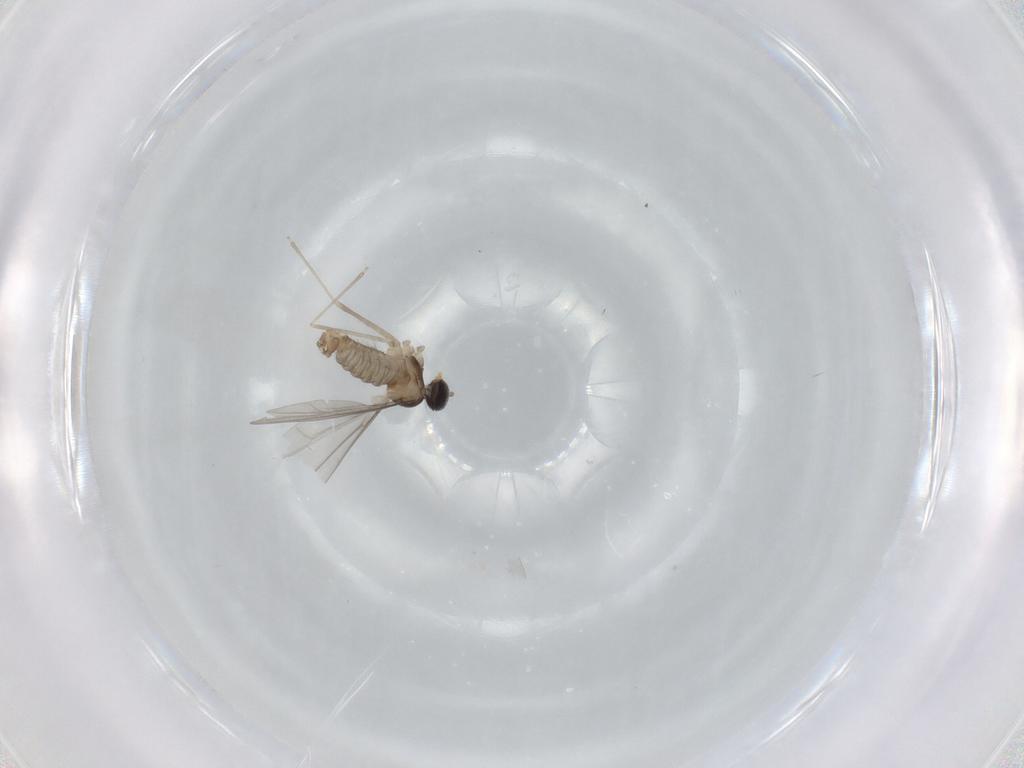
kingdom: Animalia
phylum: Arthropoda
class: Insecta
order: Diptera
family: Cecidomyiidae
